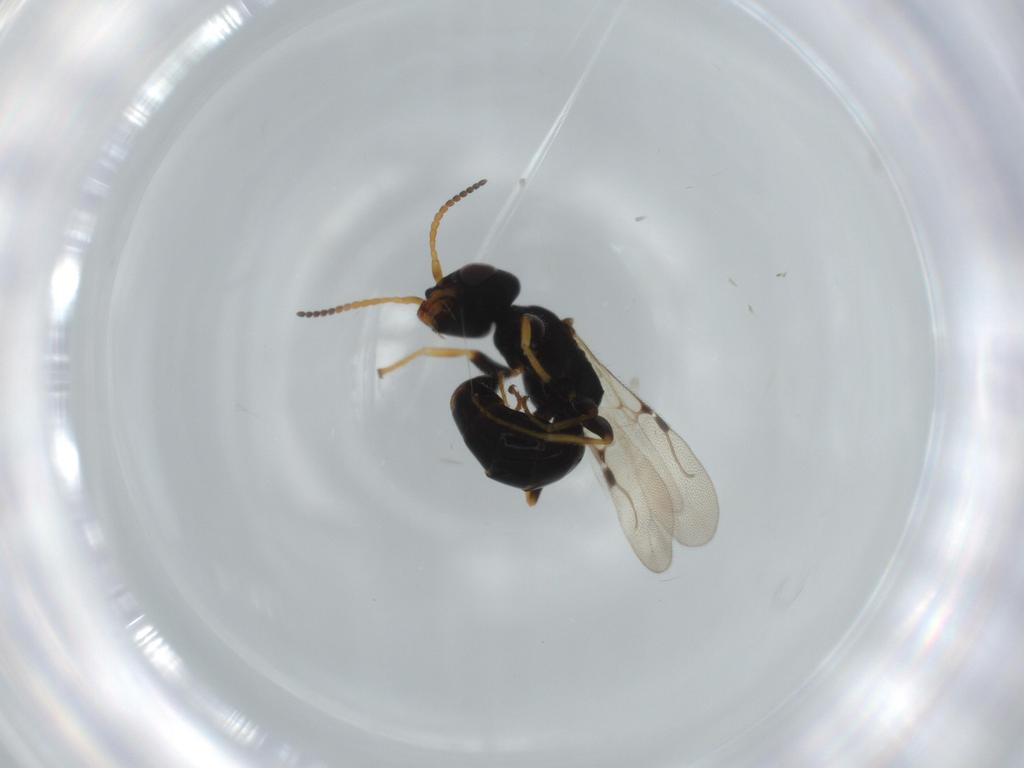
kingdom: Animalia
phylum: Arthropoda
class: Insecta
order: Hymenoptera
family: Bethylidae
